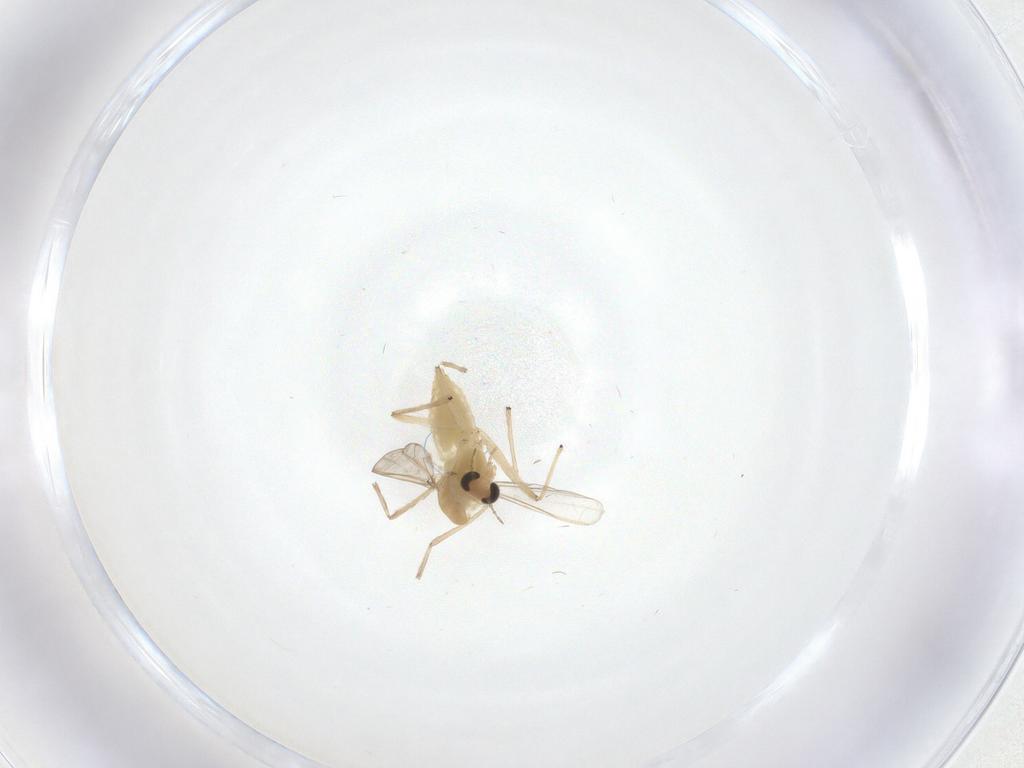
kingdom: Animalia
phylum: Arthropoda
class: Insecta
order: Diptera
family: Chironomidae
